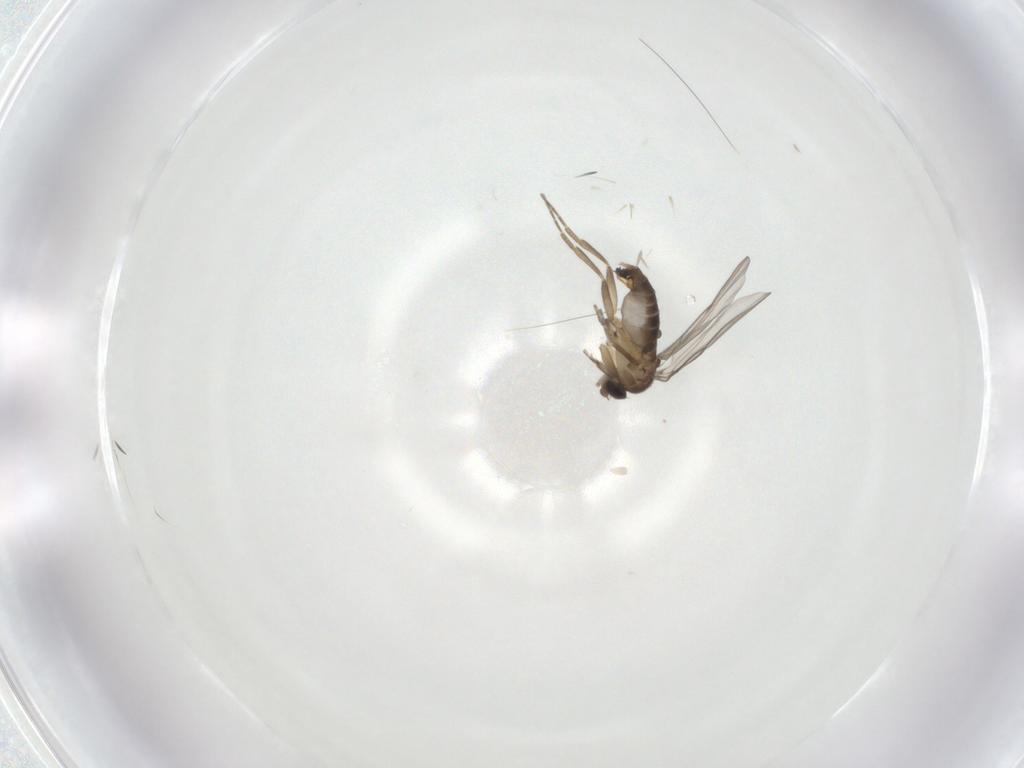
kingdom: Animalia
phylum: Arthropoda
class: Insecta
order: Diptera
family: Phoridae
